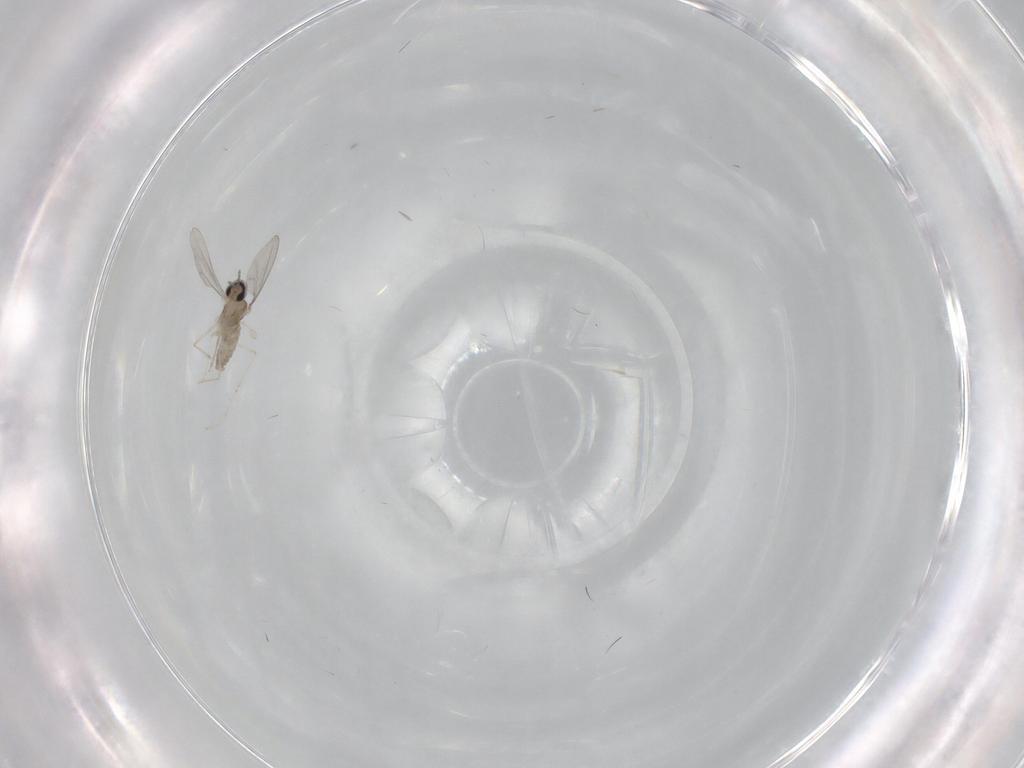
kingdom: Animalia
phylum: Arthropoda
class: Insecta
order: Diptera
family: Cecidomyiidae
